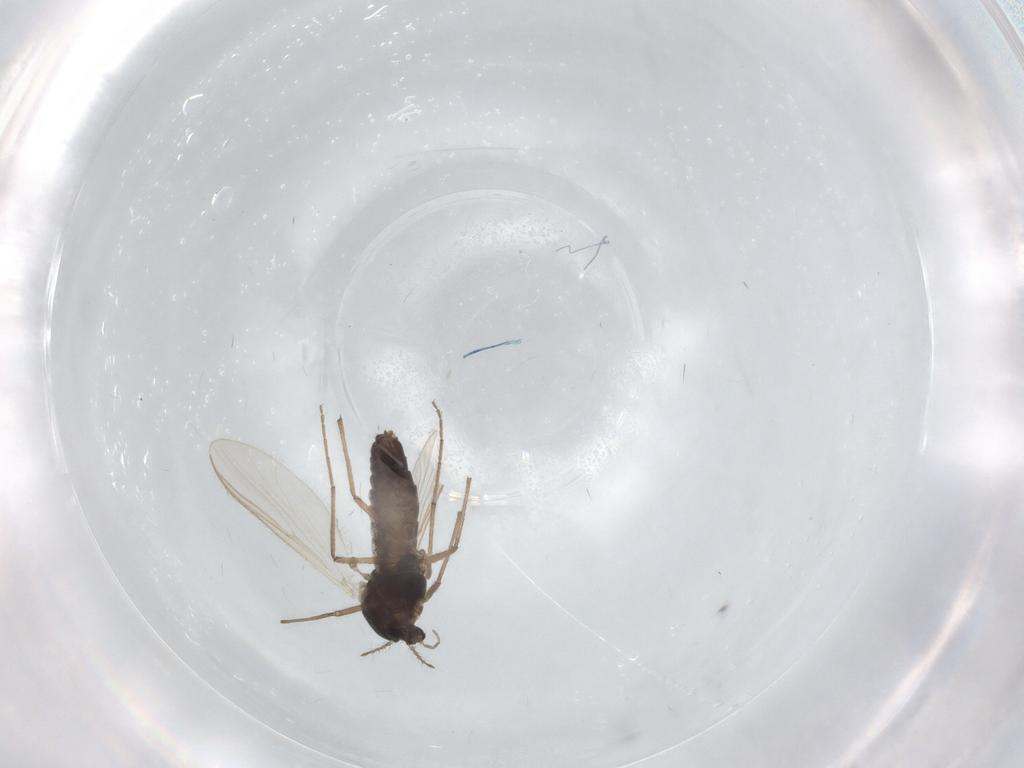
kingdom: Animalia
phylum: Arthropoda
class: Insecta
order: Diptera
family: Chironomidae
